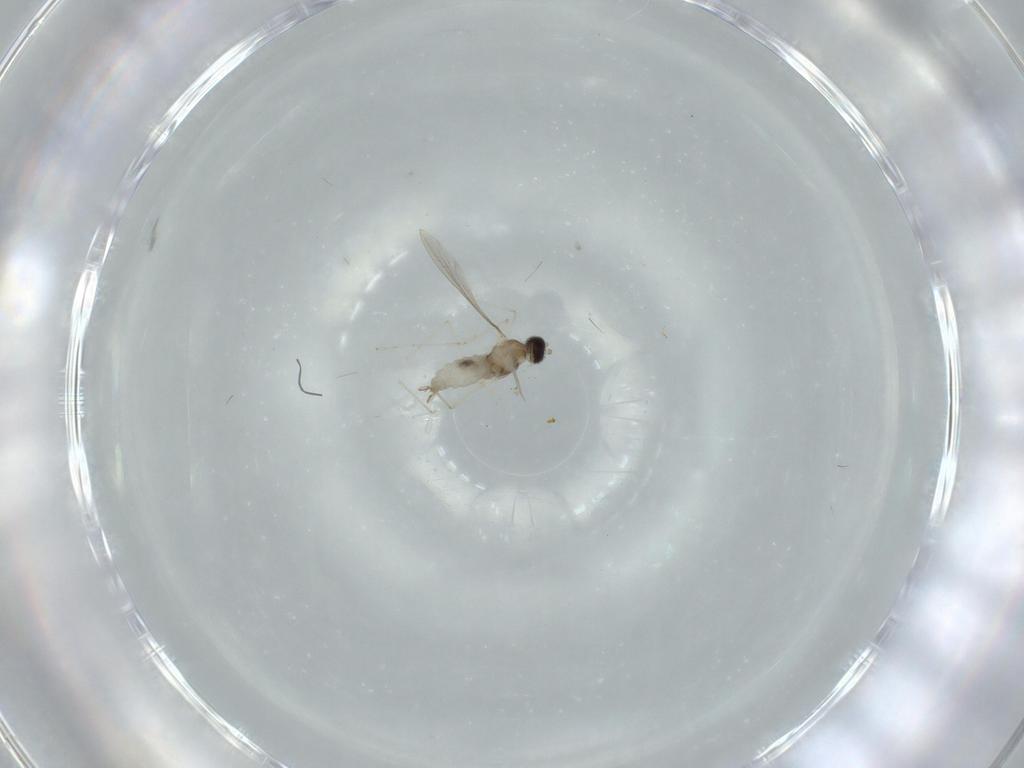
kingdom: Animalia
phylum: Arthropoda
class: Insecta
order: Diptera
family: Cecidomyiidae
